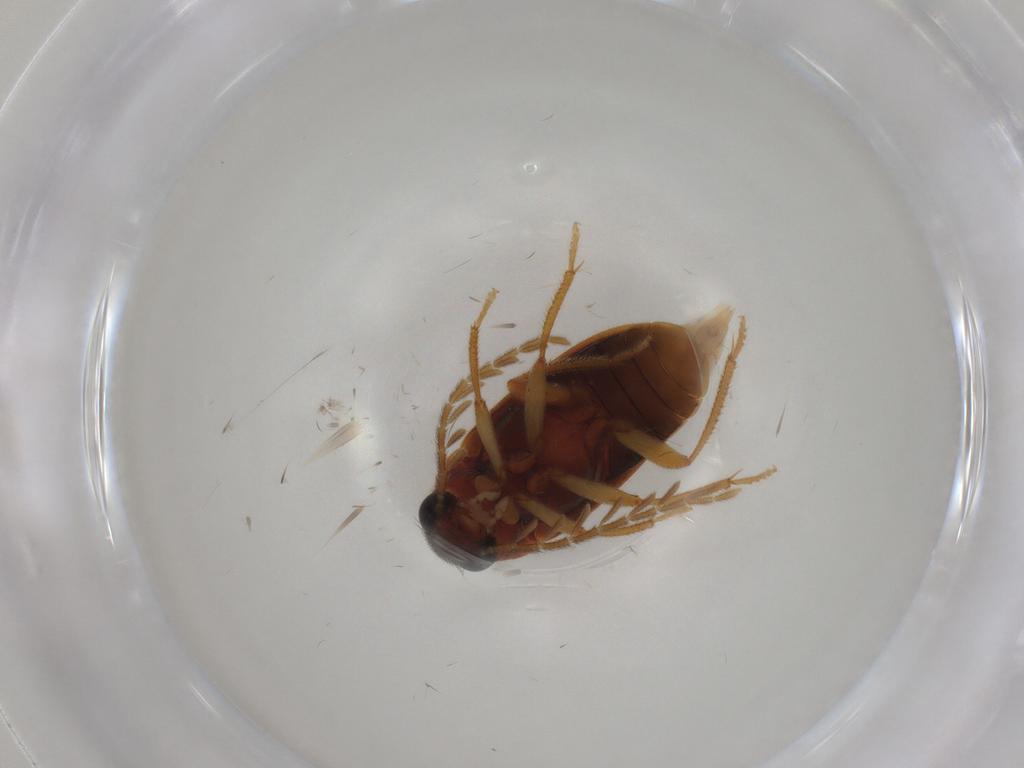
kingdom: Animalia
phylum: Arthropoda
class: Insecta
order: Coleoptera
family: Ptilodactylidae
